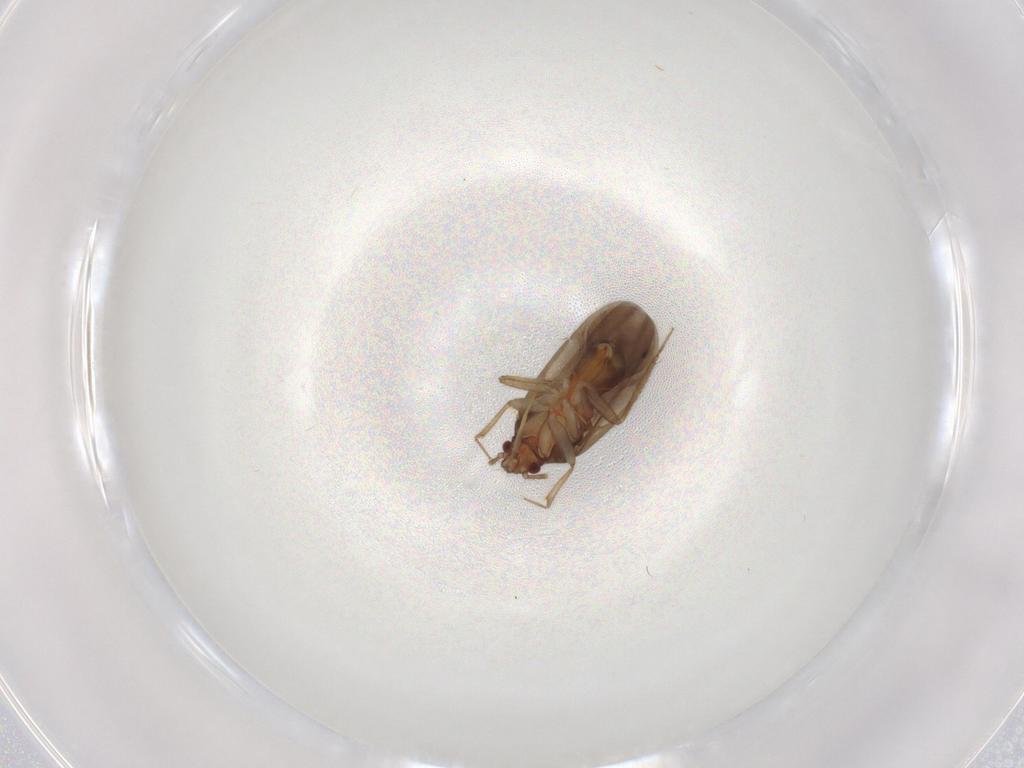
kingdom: Animalia
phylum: Arthropoda
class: Insecta
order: Hemiptera
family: Ceratocombidae
